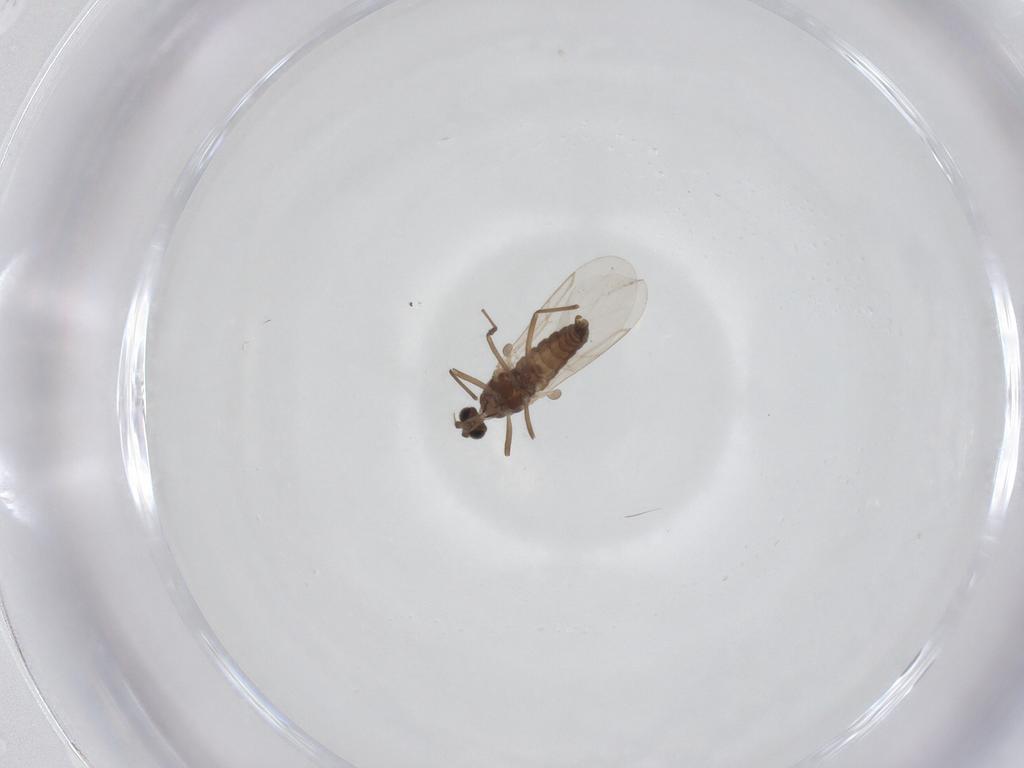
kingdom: Animalia
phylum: Arthropoda
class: Insecta
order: Diptera
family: Cecidomyiidae
